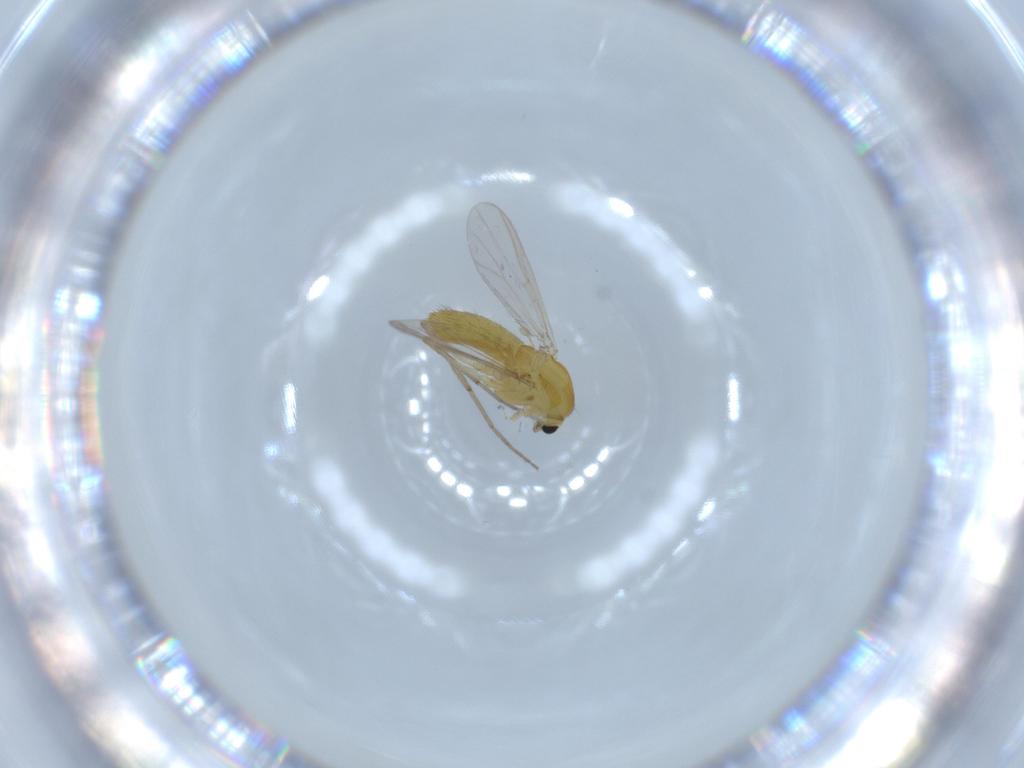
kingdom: Animalia
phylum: Arthropoda
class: Insecta
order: Diptera
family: Chironomidae
